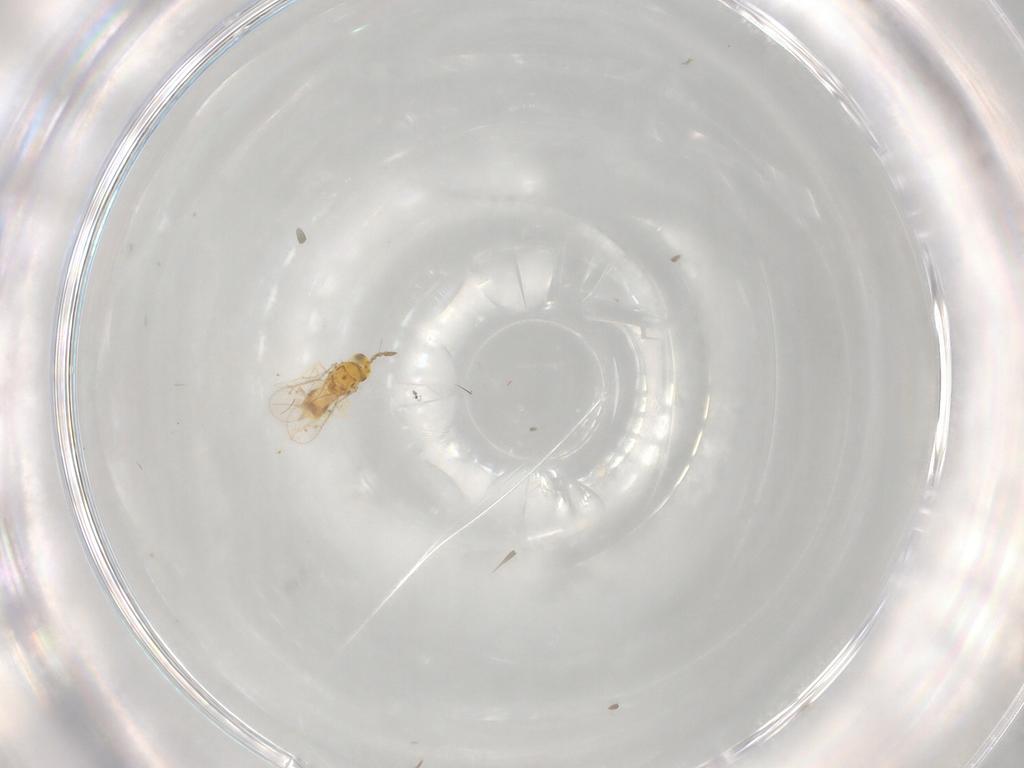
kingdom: Animalia
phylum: Arthropoda
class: Insecta
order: Hymenoptera
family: Eulophidae
